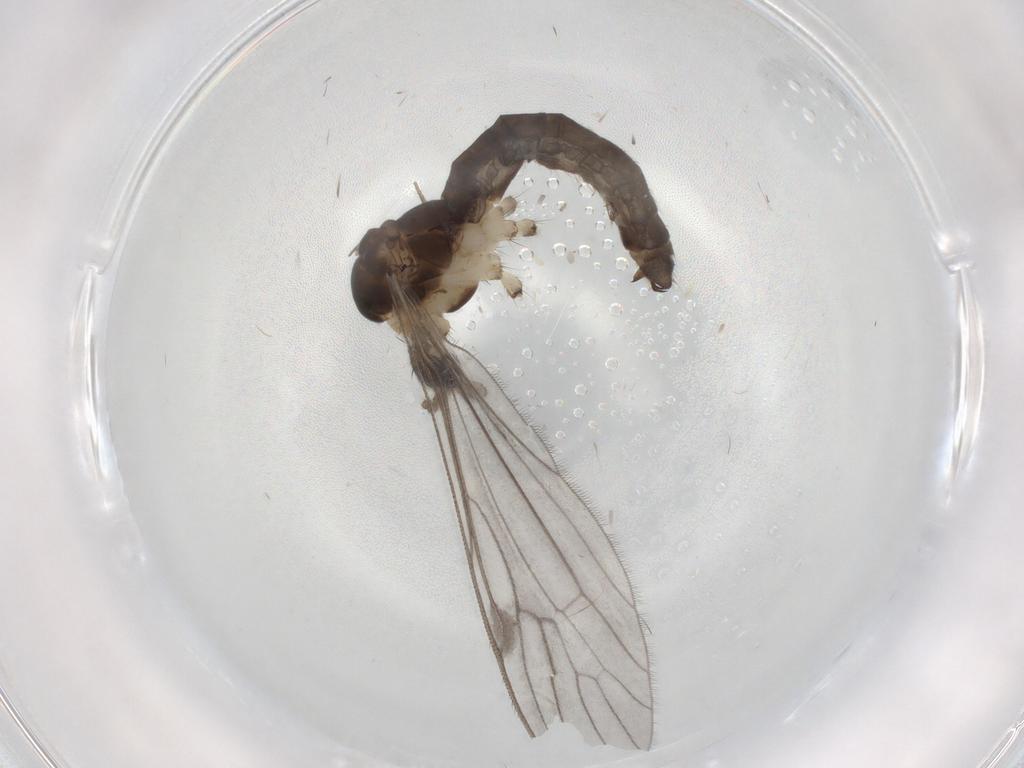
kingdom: Animalia
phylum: Arthropoda
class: Insecta
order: Diptera
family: Limoniidae
